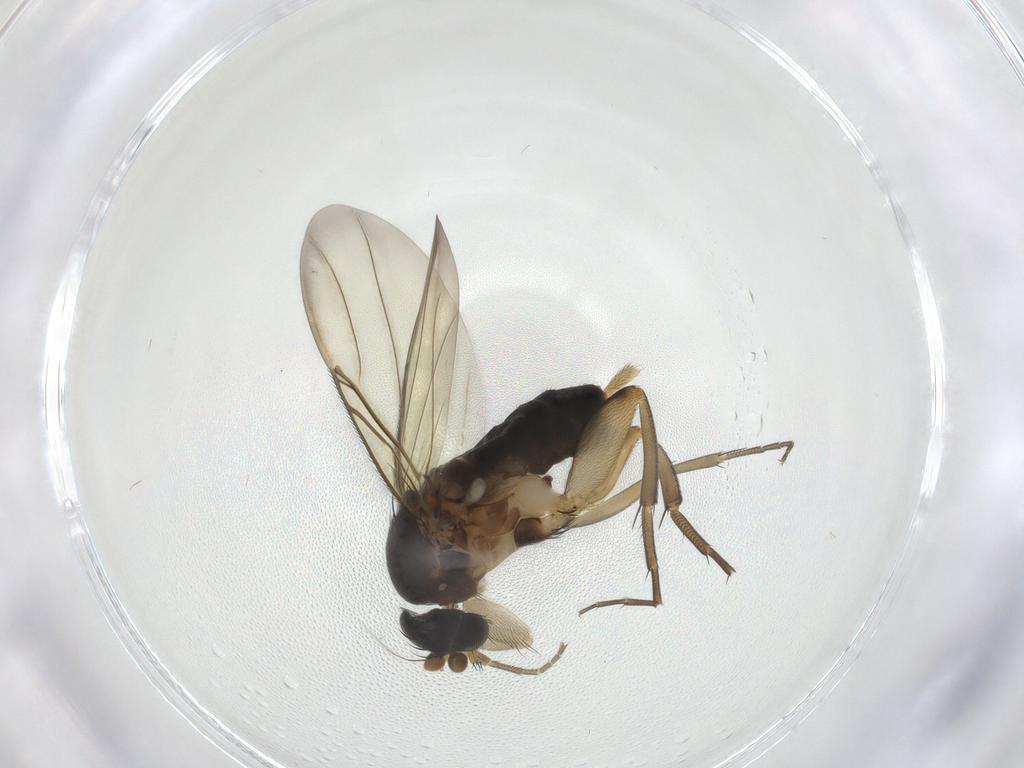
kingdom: Animalia
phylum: Arthropoda
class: Insecta
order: Diptera
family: Phoridae
